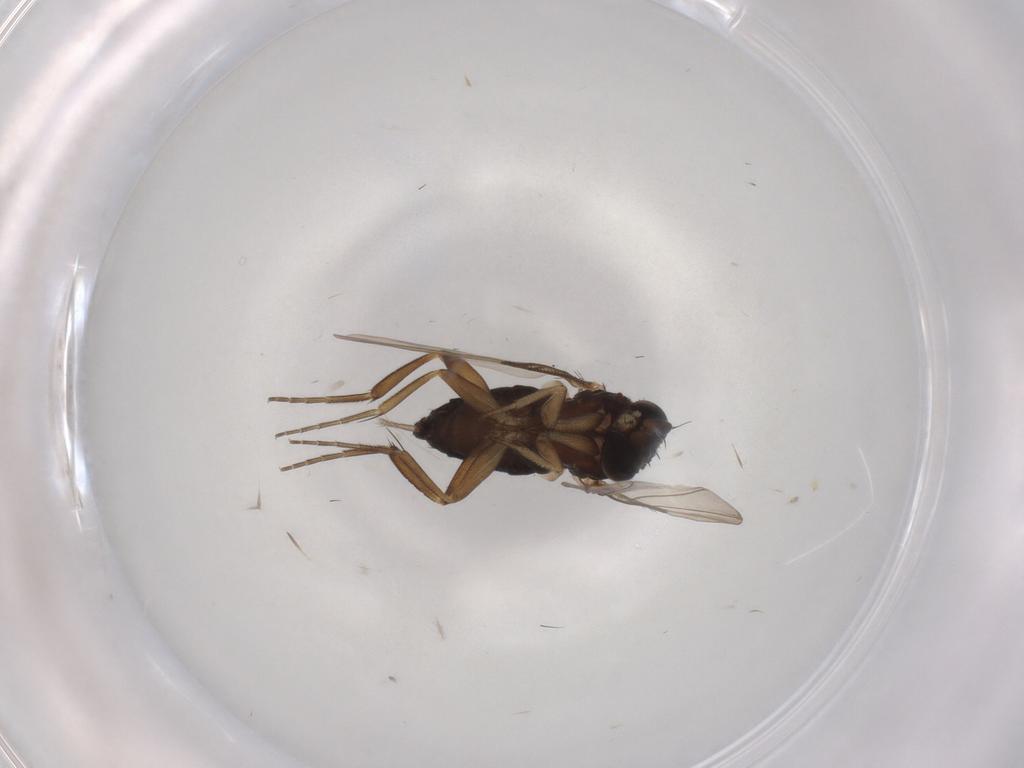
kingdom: Animalia
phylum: Arthropoda
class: Insecta
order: Diptera
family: Phoridae
